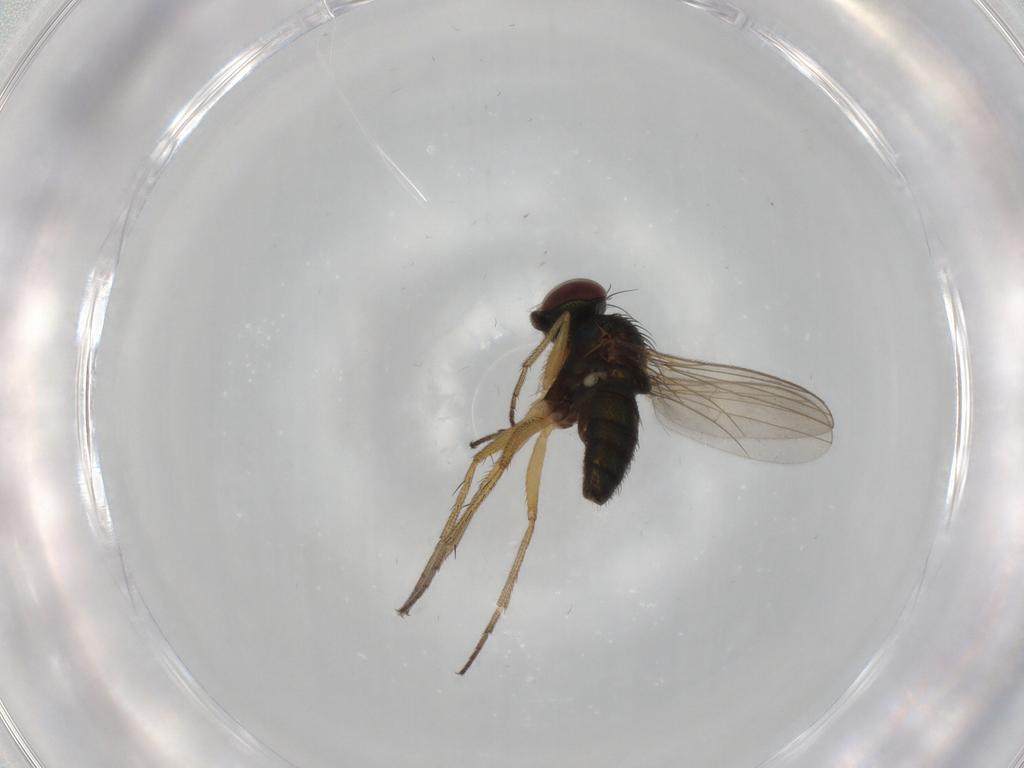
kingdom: Animalia
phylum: Arthropoda
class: Insecta
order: Diptera
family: Dolichopodidae
